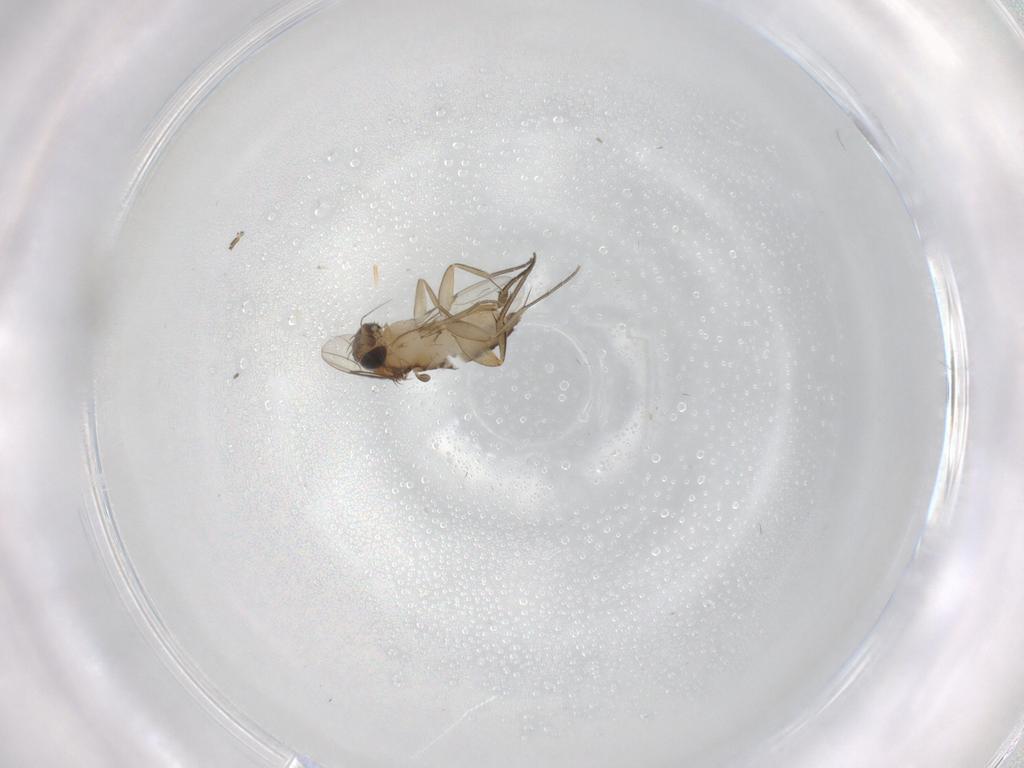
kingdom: Animalia
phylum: Arthropoda
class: Insecta
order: Diptera
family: Phoridae
